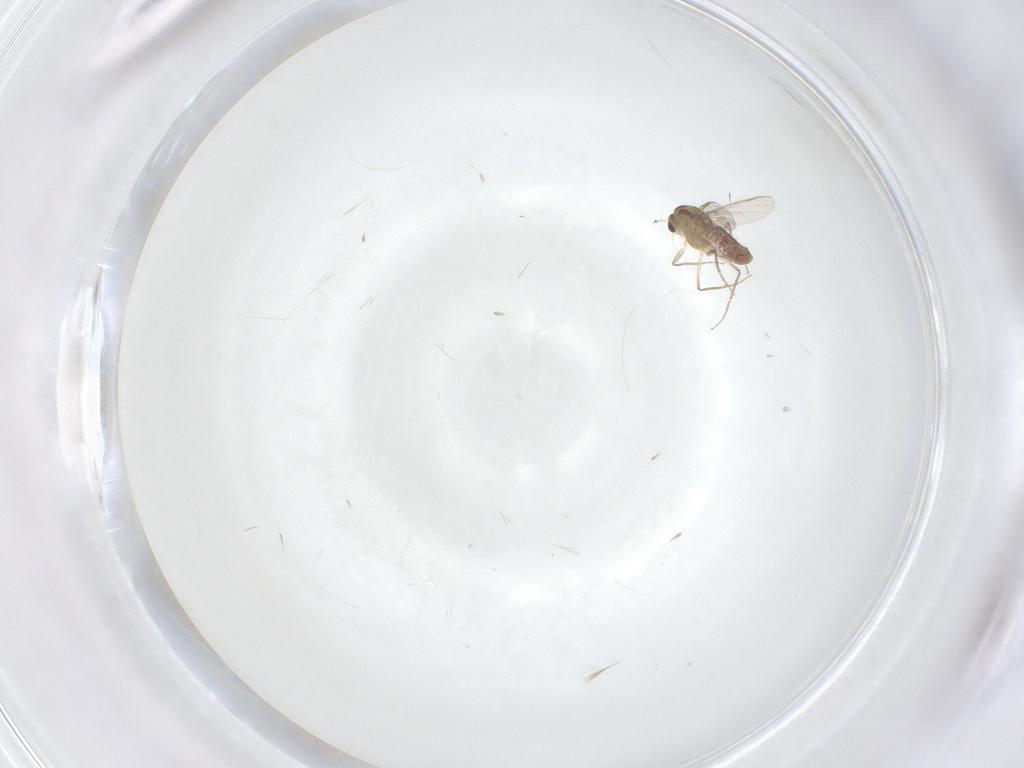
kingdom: Animalia
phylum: Arthropoda
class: Insecta
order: Diptera
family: Chironomidae
